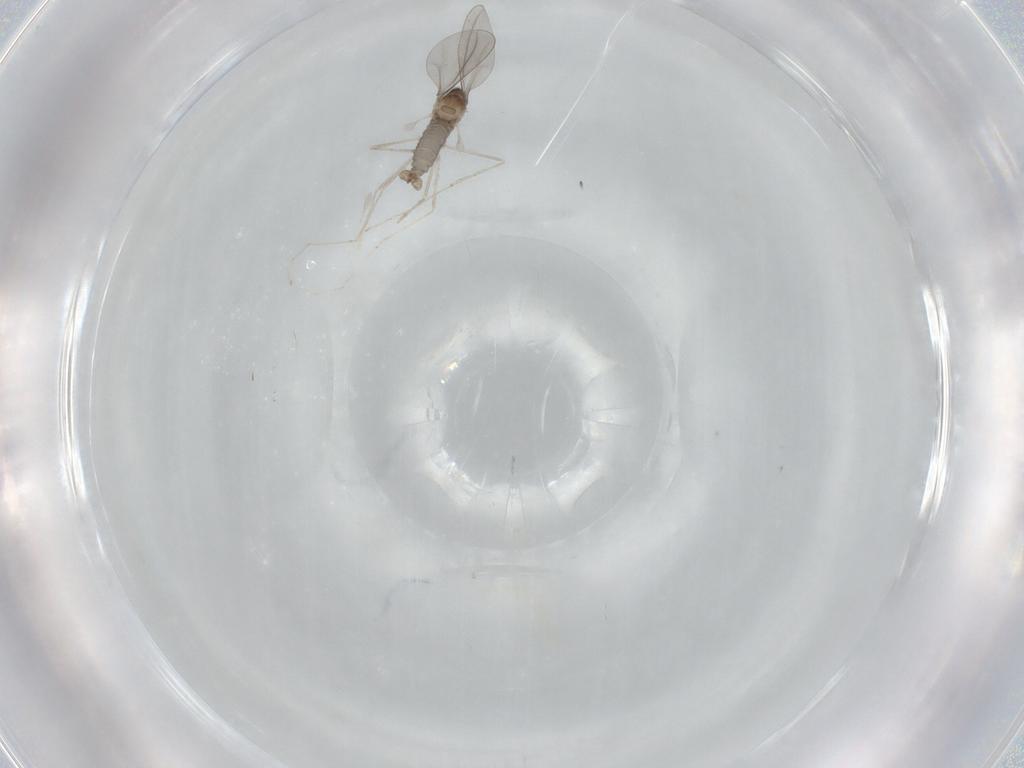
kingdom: Animalia
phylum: Arthropoda
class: Insecta
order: Diptera
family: Cecidomyiidae
